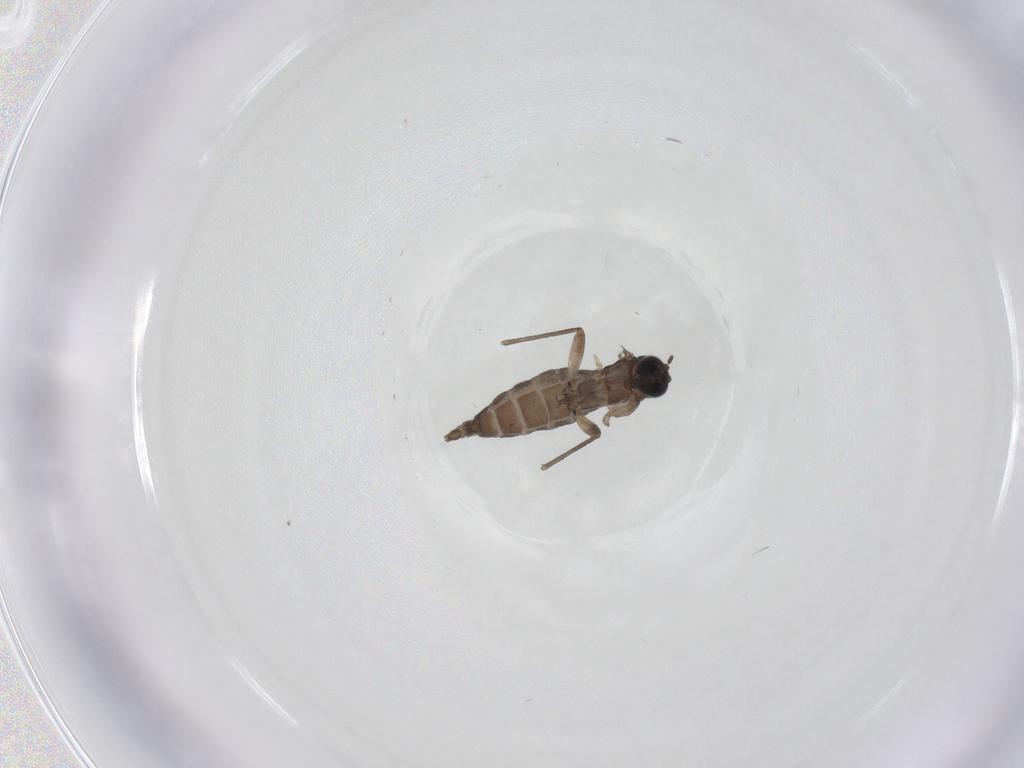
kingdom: Animalia
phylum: Arthropoda
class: Insecta
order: Diptera
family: Sciaridae
